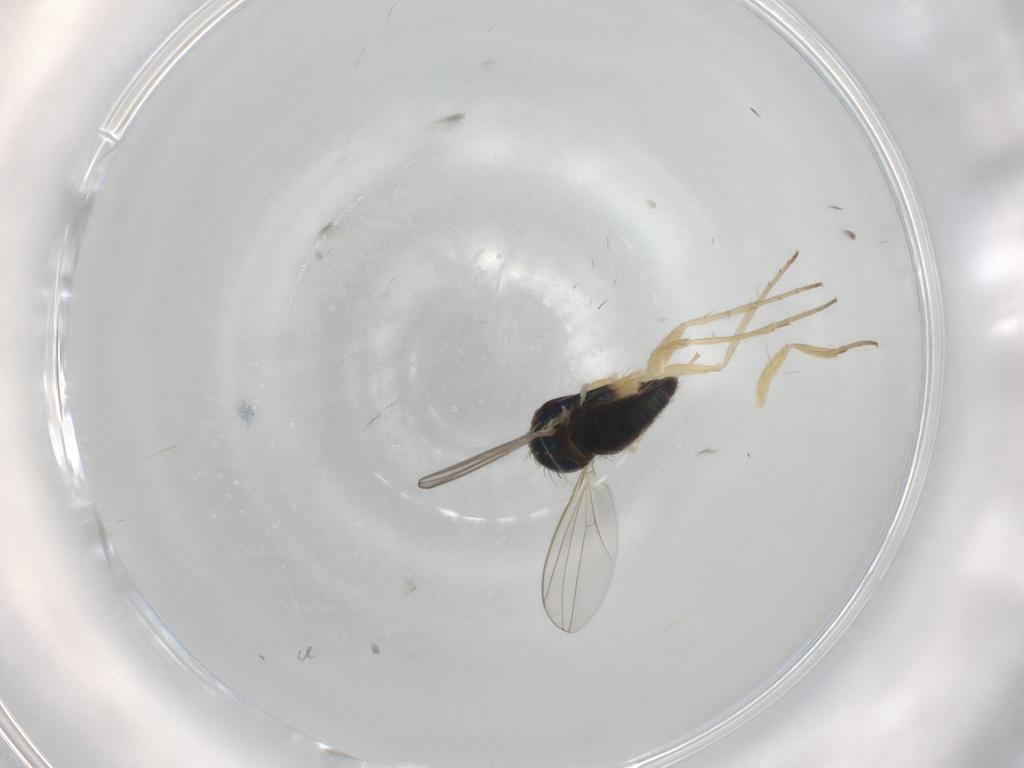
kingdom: Animalia
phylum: Arthropoda
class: Insecta
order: Diptera
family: Dolichopodidae
